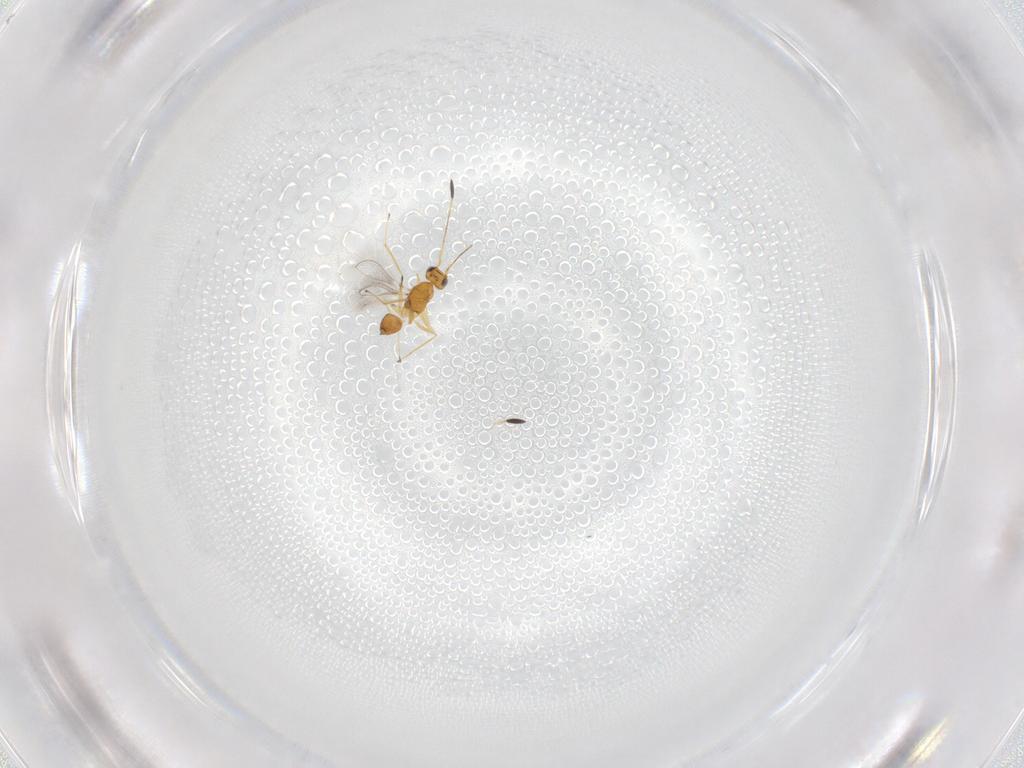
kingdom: Animalia
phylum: Arthropoda
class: Insecta
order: Hymenoptera
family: Mymaridae
